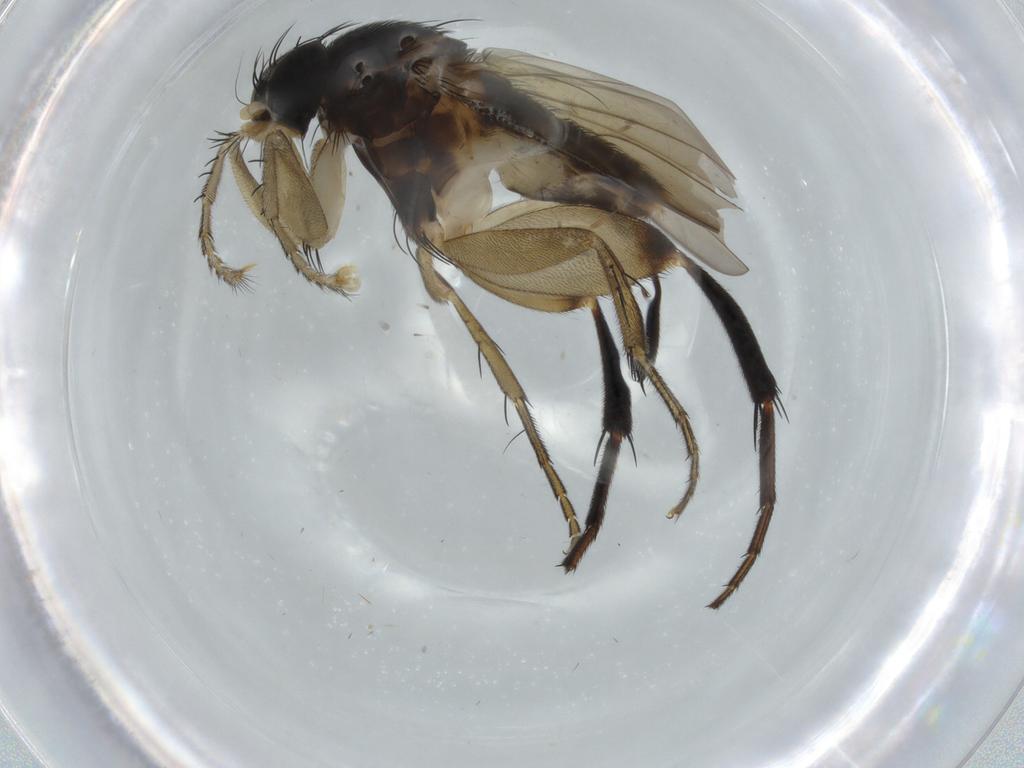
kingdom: Animalia
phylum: Arthropoda
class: Insecta
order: Diptera
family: Phoridae
